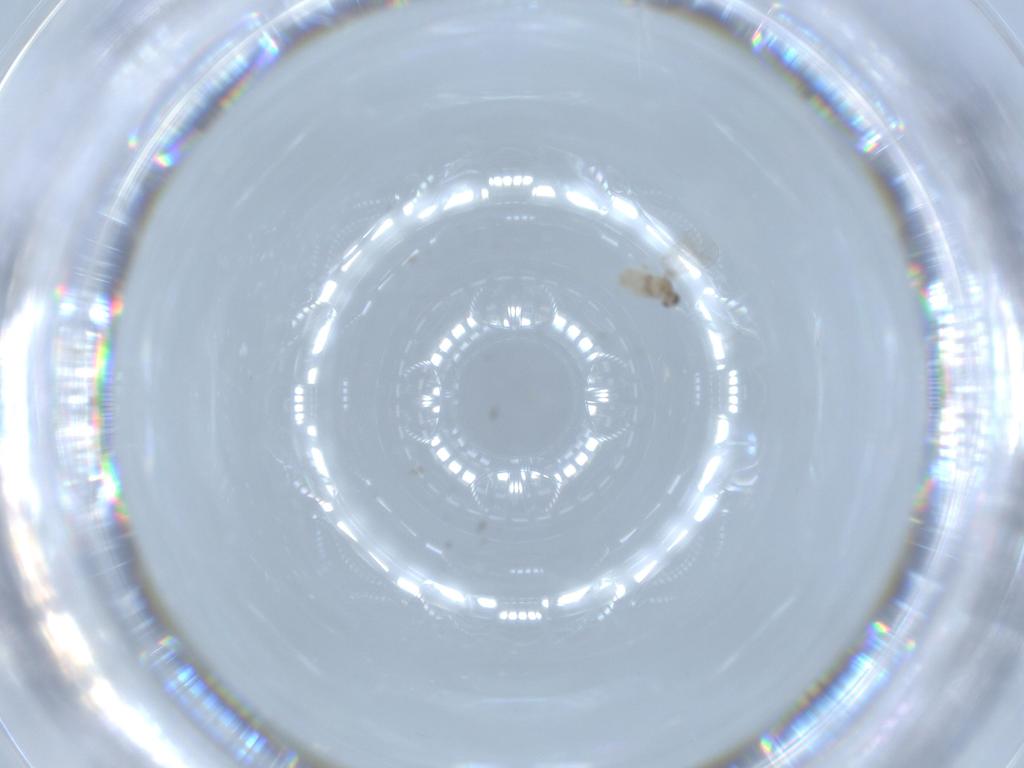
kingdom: Animalia
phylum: Arthropoda
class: Insecta
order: Diptera
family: Cecidomyiidae
